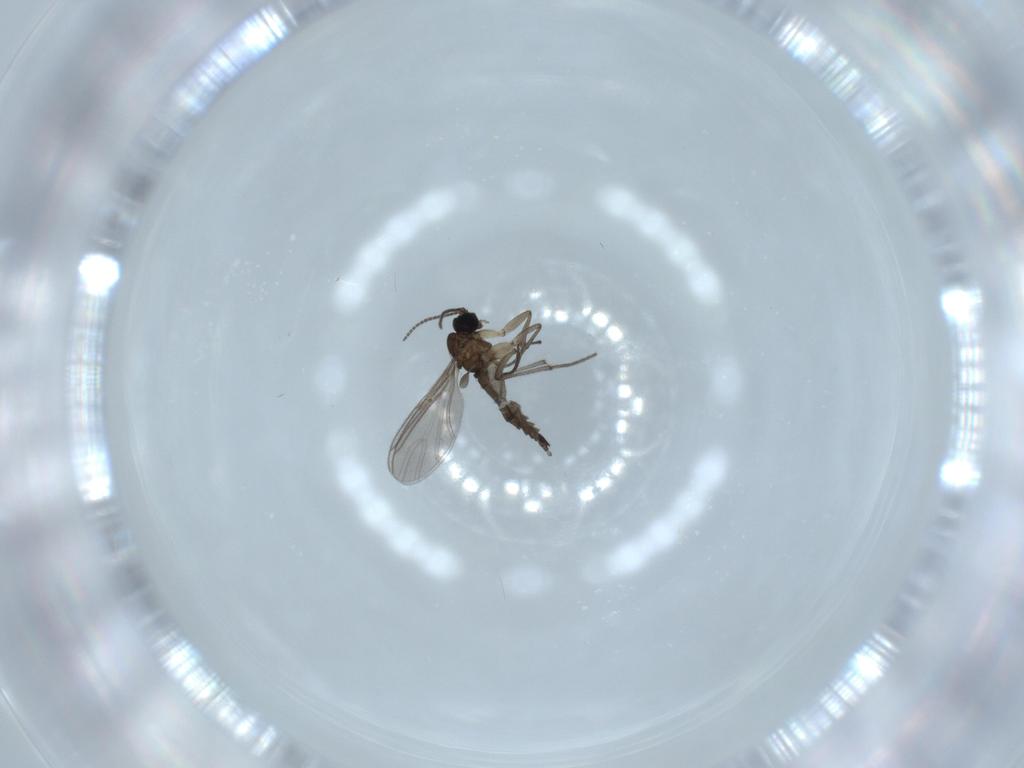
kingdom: Animalia
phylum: Arthropoda
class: Insecta
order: Diptera
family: Sciaridae
